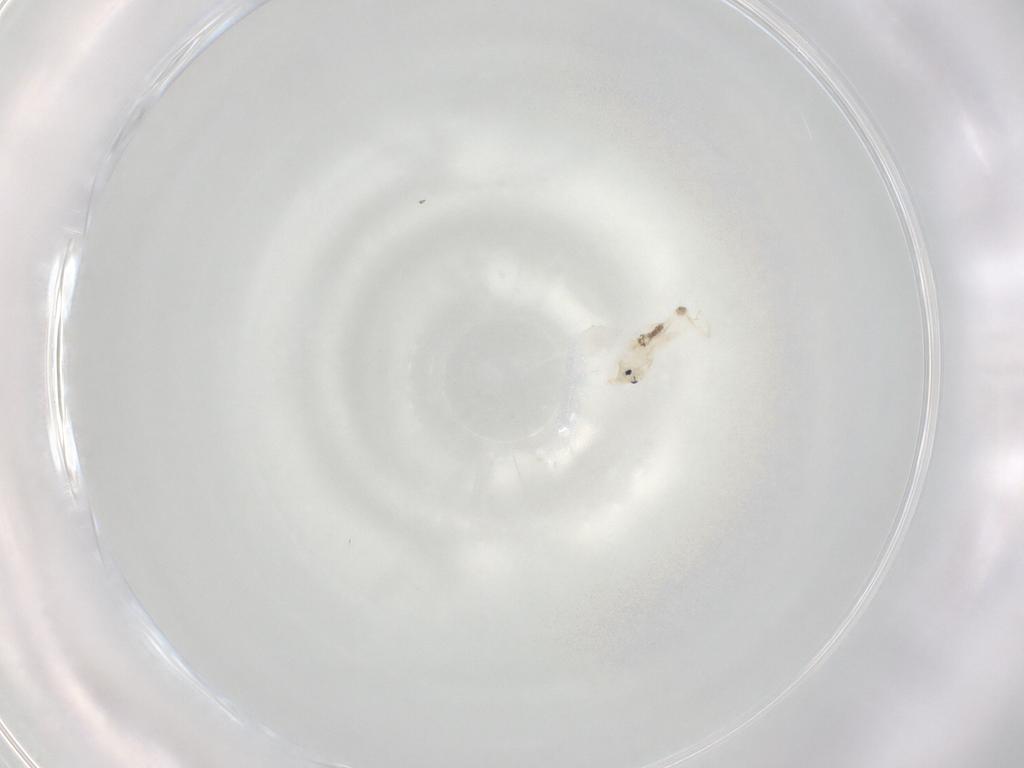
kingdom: Animalia
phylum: Arthropoda
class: Collembola
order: Entomobryomorpha
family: Entomobryidae
